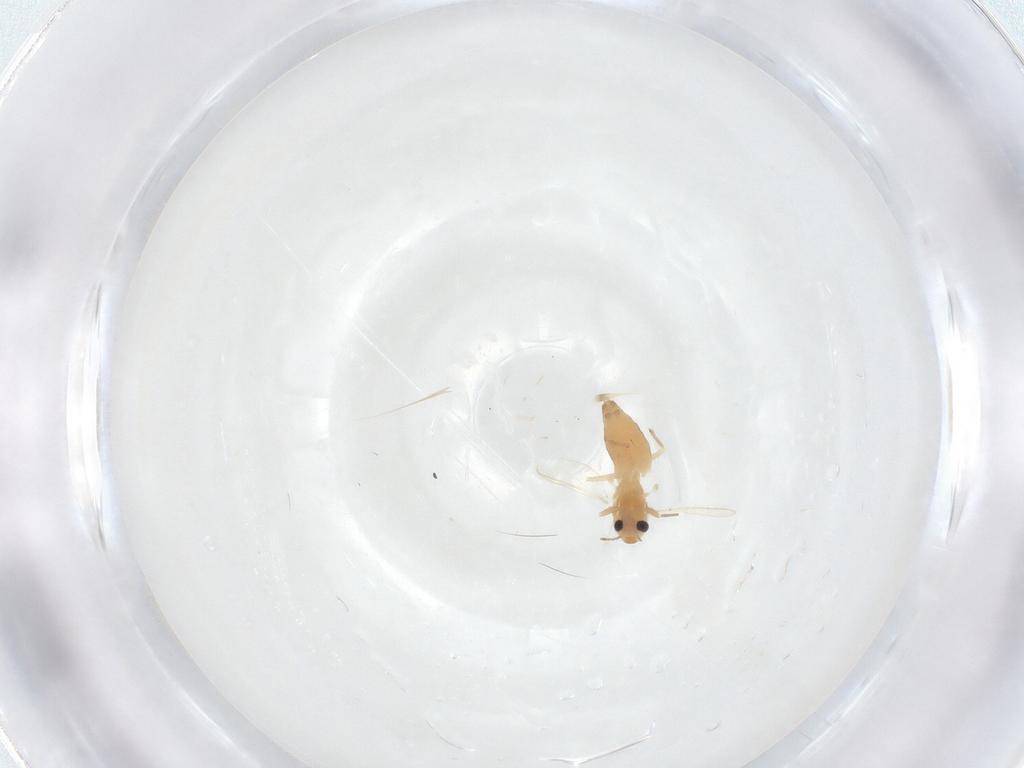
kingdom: Animalia
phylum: Arthropoda
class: Insecta
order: Diptera
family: Chironomidae
